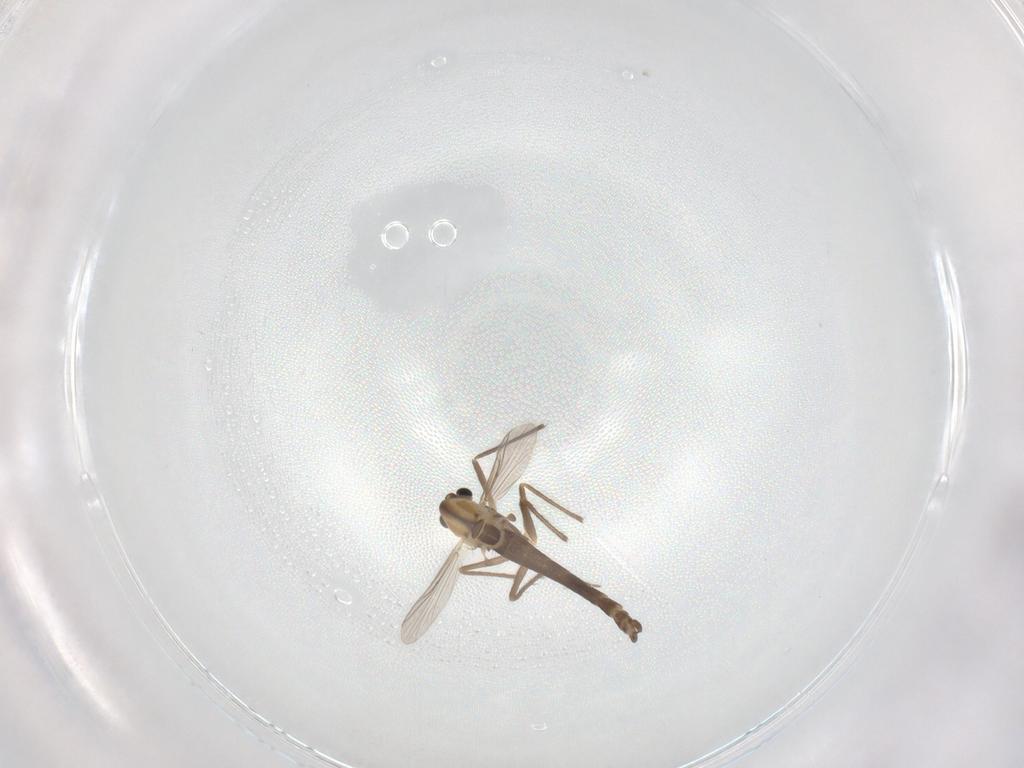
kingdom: Animalia
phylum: Arthropoda
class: Insecta
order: Diptera
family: Chironomidae
